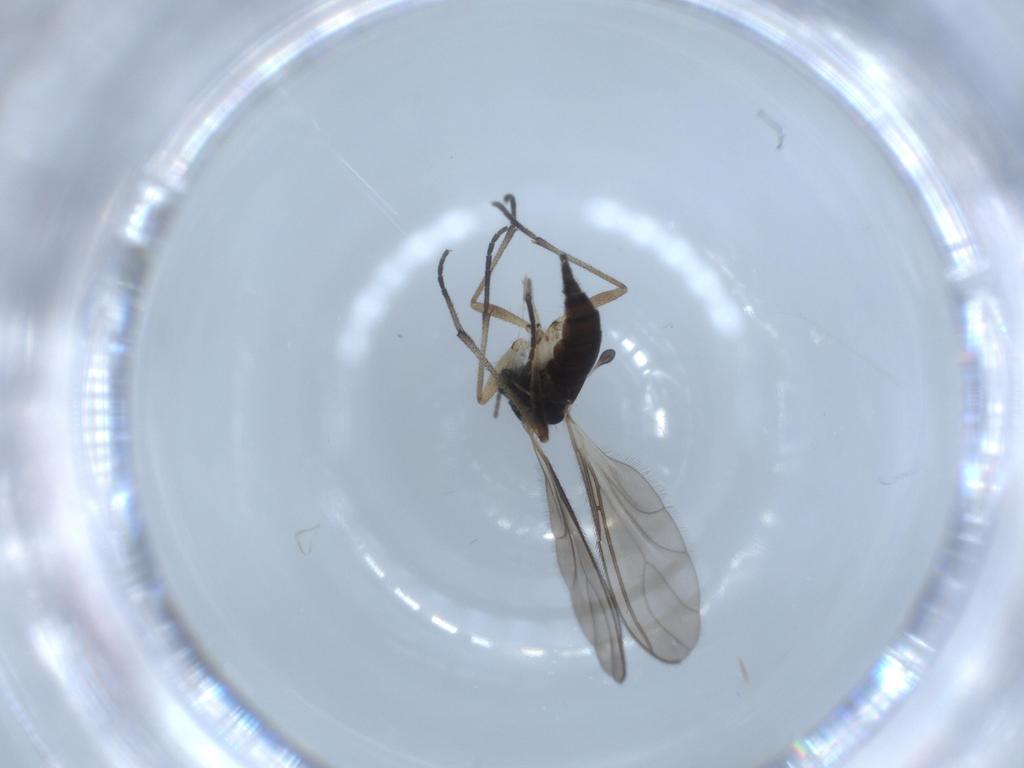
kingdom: Animalia
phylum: Arthropoda
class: Insecta
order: Diptera
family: Sciaridae
